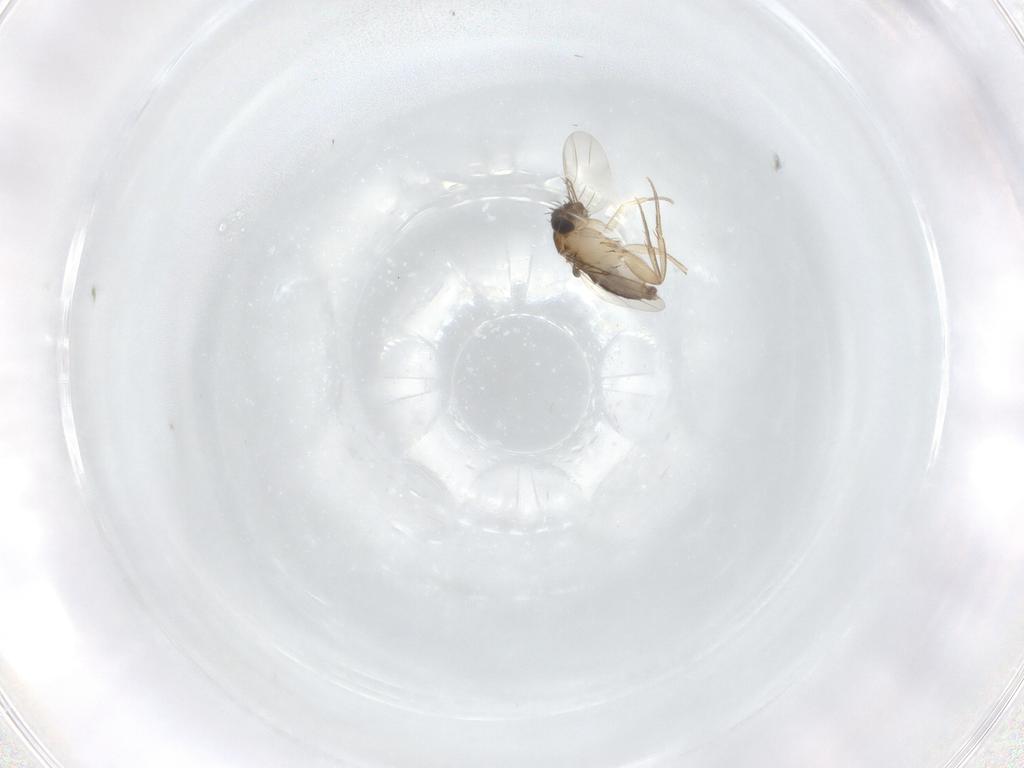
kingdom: Animalia
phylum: Arthropoda
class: Insecta
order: Diptera
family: Phoridae
